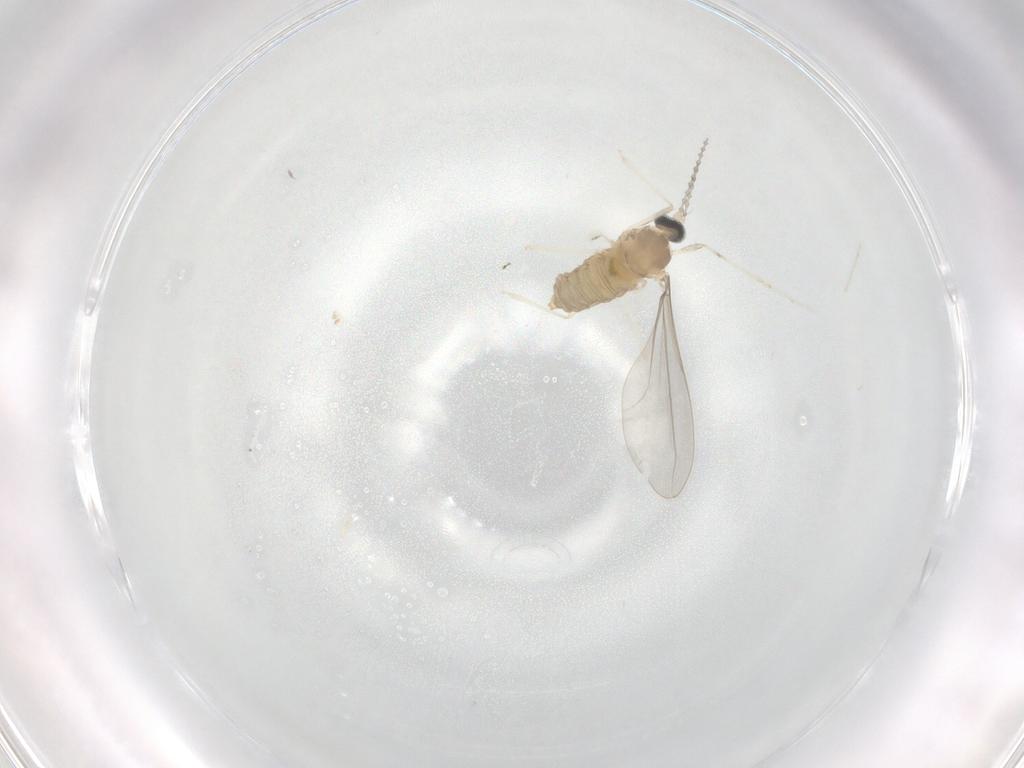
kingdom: Animalia
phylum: Arthropoda
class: Insecta
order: Diptera
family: Cecidomyiidae
